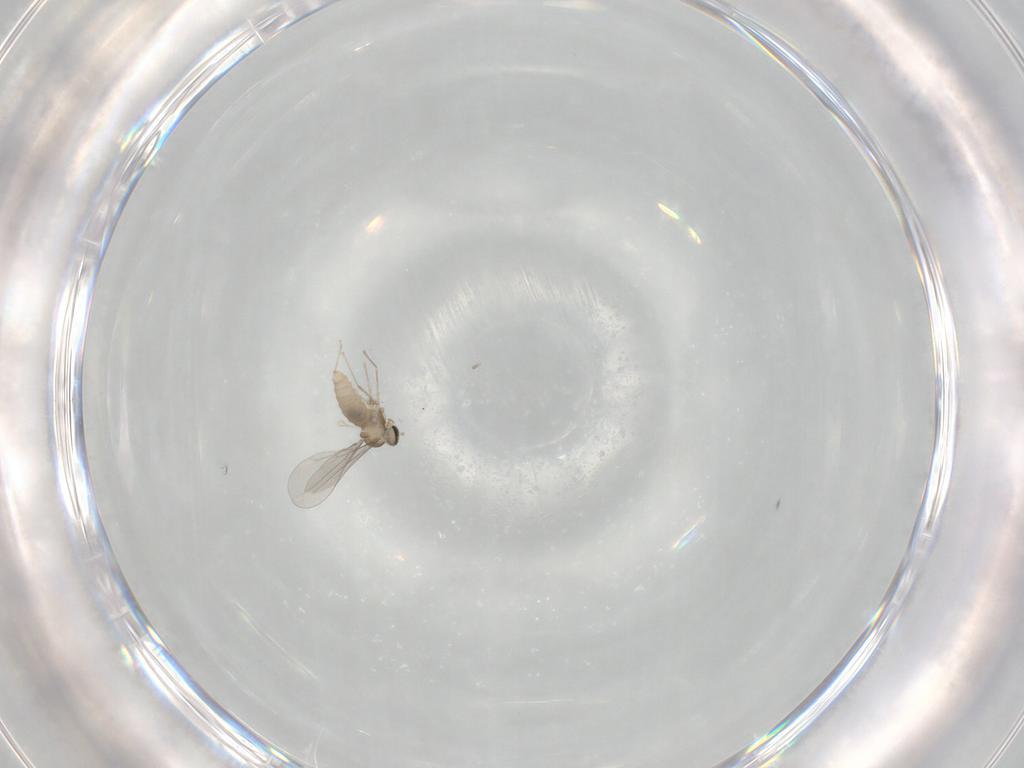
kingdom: Animalia
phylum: Arthropoda
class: Insecta
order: Diptera
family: Cecidomyiidae
